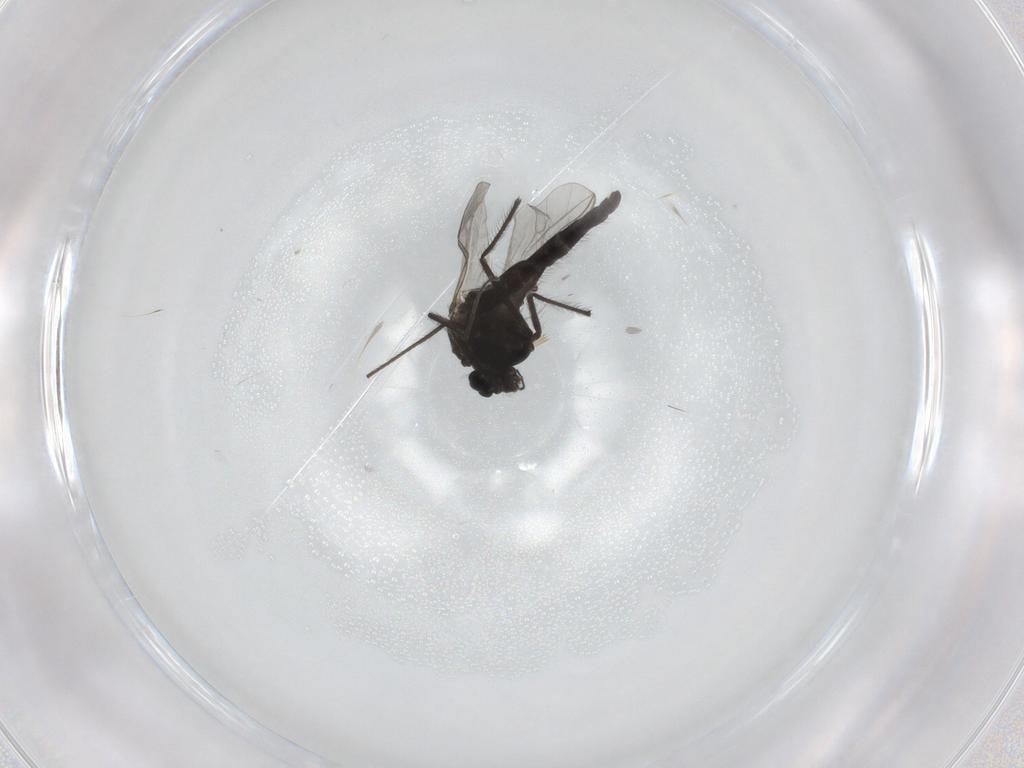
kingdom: Animalia
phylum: Arthropoda
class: Insecta
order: Diptera
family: Chironomidae
